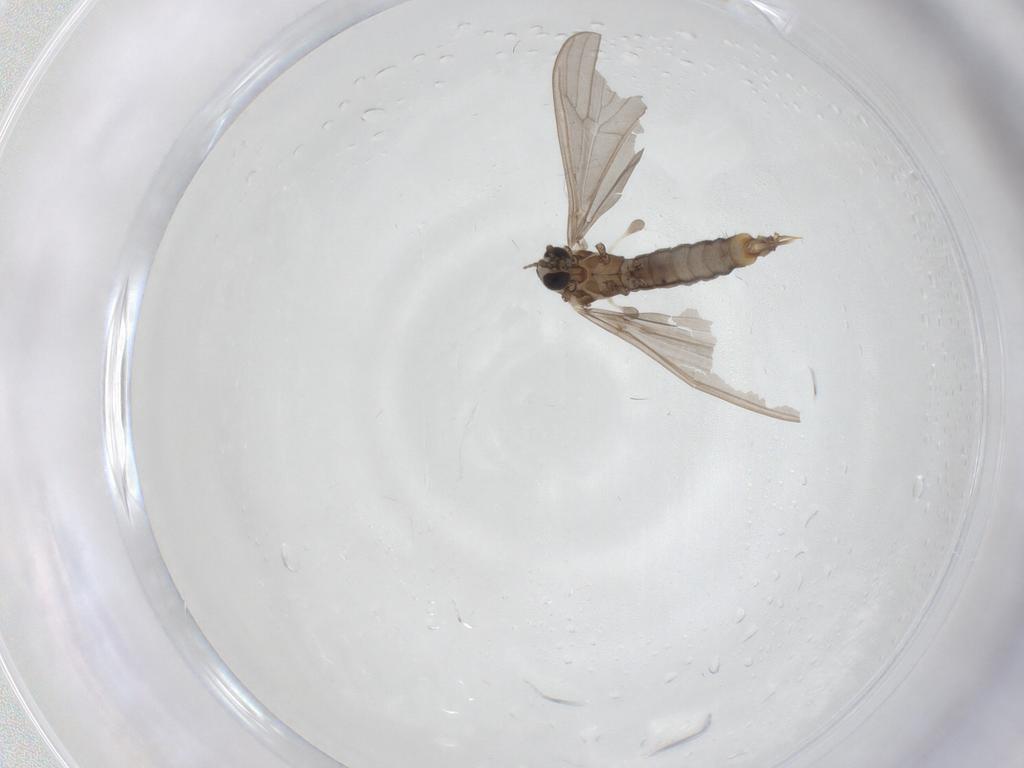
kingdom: Animalia
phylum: Arthropoda
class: Insecta
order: Diptera
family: Limoniidae
